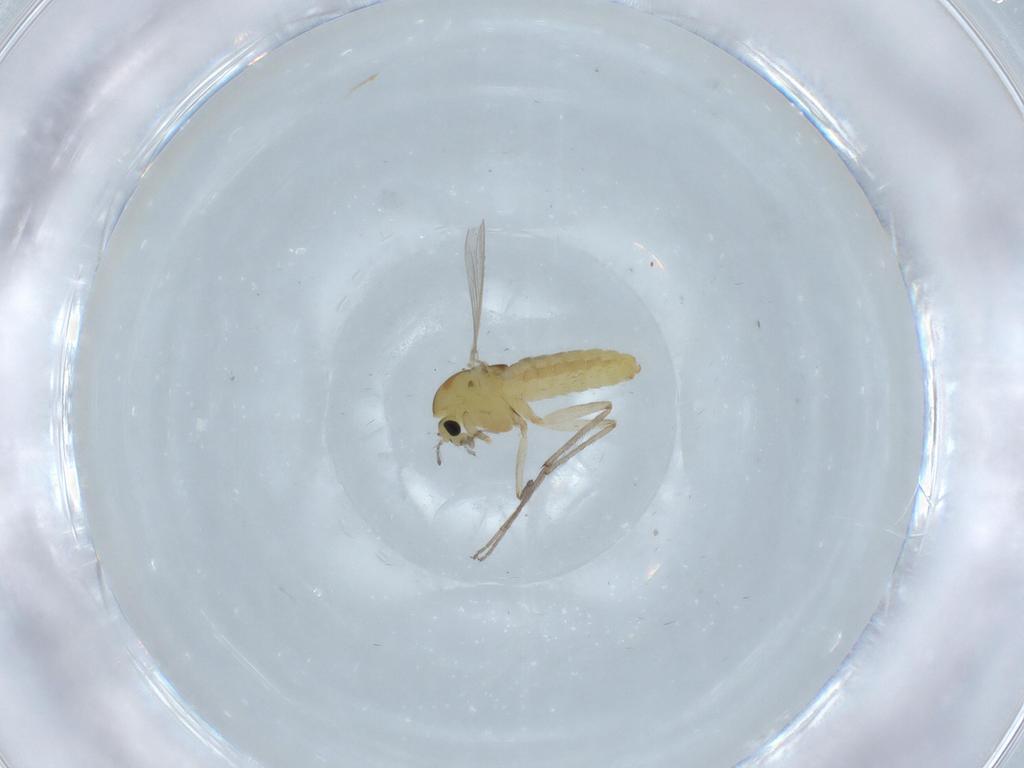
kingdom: Animalia
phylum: Arthropoda
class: Insecta
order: Diptera
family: Chironomidae
